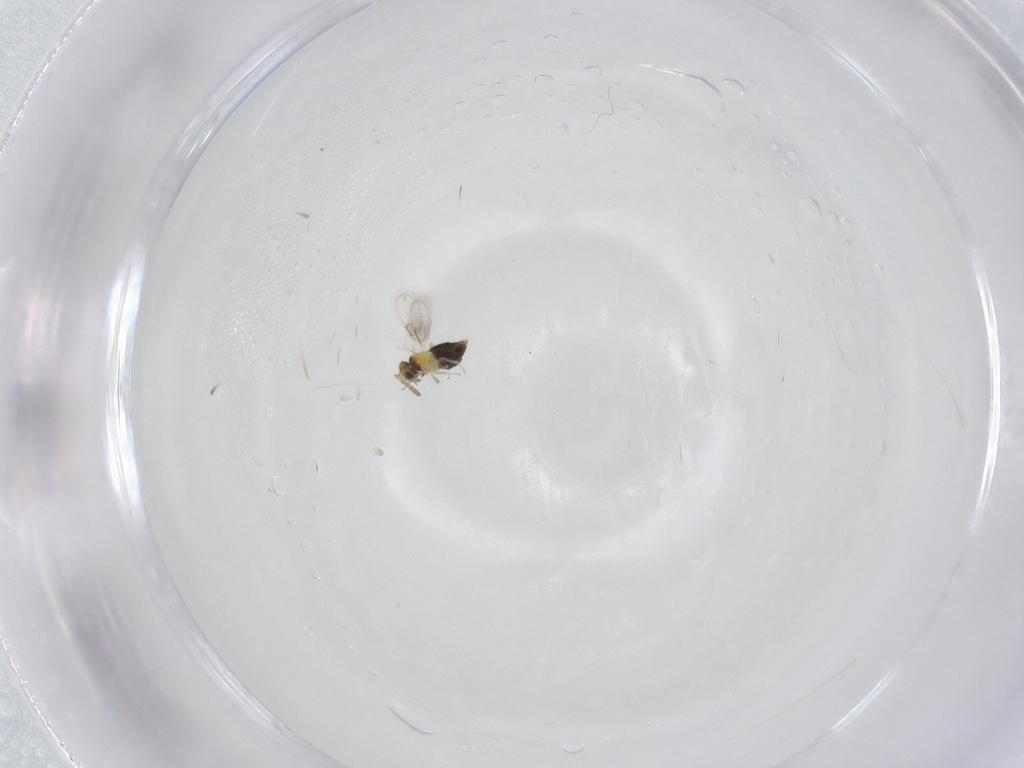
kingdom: Animalia
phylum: Arthropoda
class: Insecta
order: Hymenoptera
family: Aphelinidae
